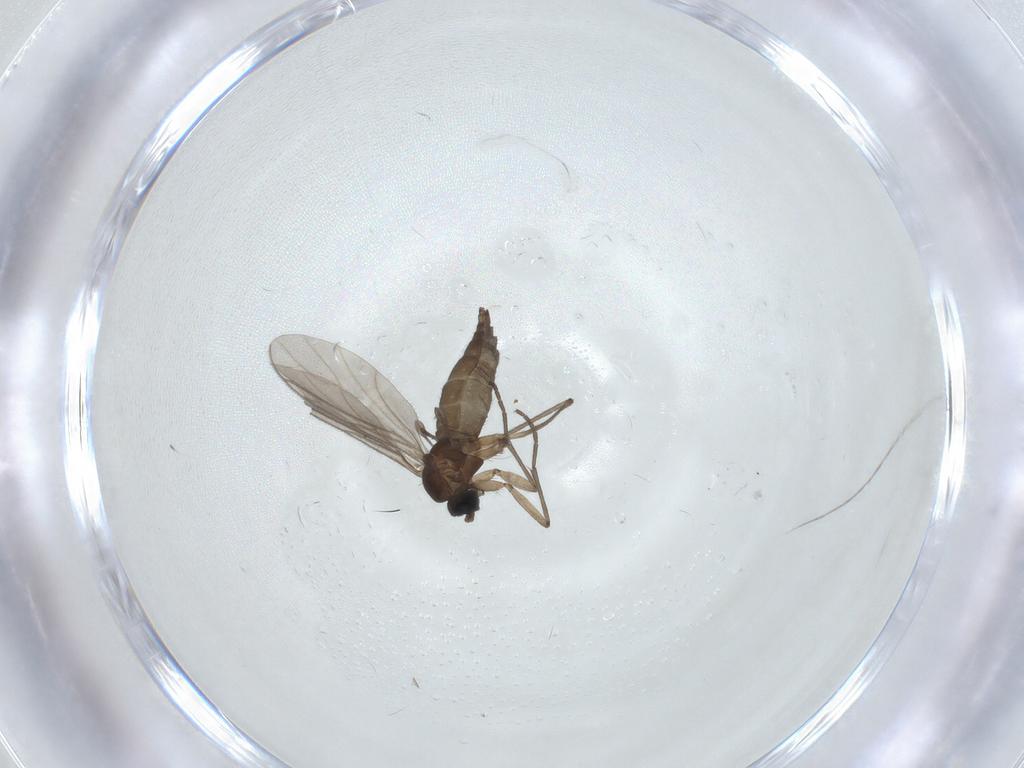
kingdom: Animalia
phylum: Arthropoda
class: Insecta
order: Diptera
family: Sciaridae
